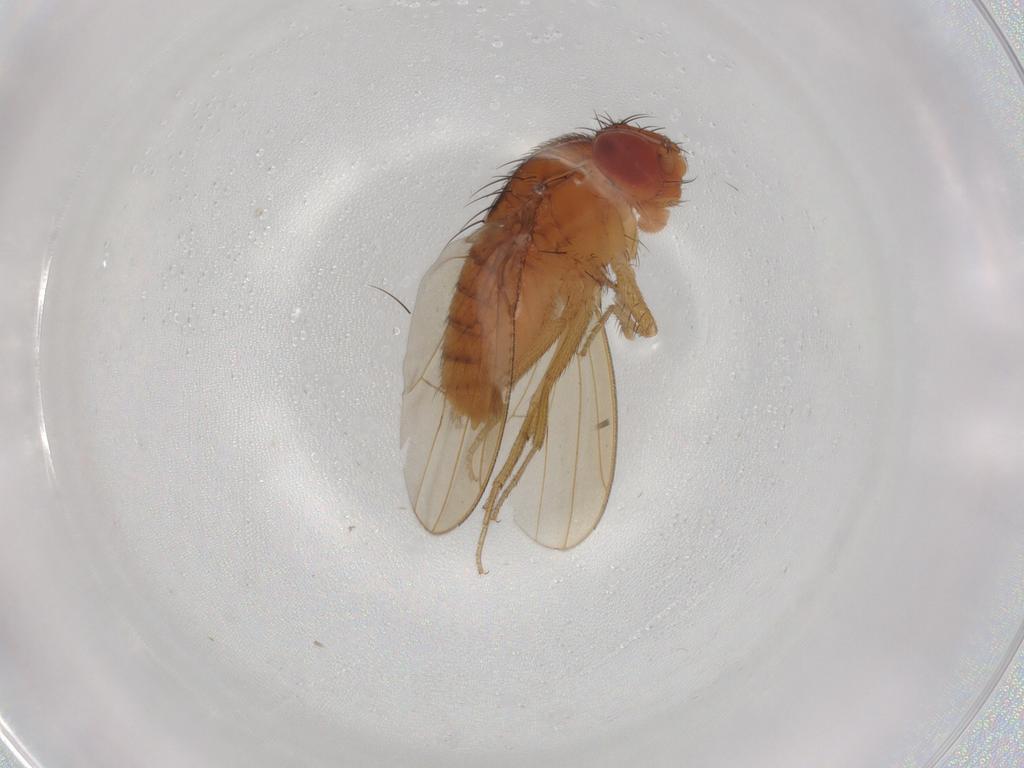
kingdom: Animalia
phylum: Arthropoda
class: Insecta
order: Diptera
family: Drosophilidae
